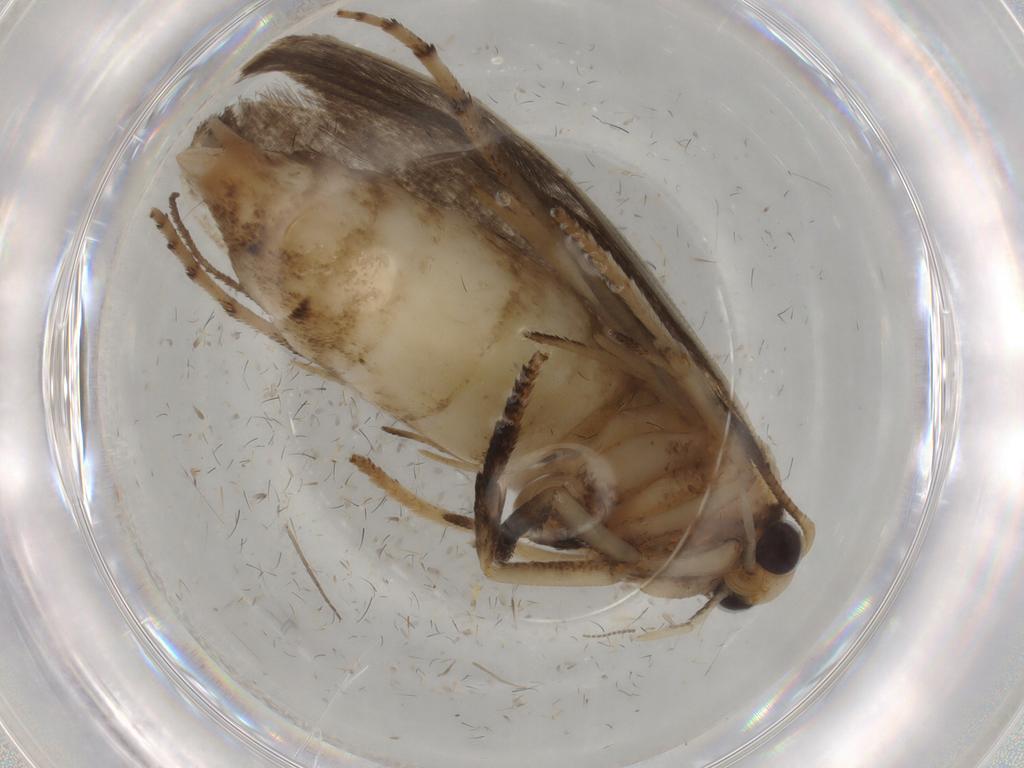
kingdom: Animalia
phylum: Arthropoda
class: Insecta
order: Lepidoptera
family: Yponomeutidae
